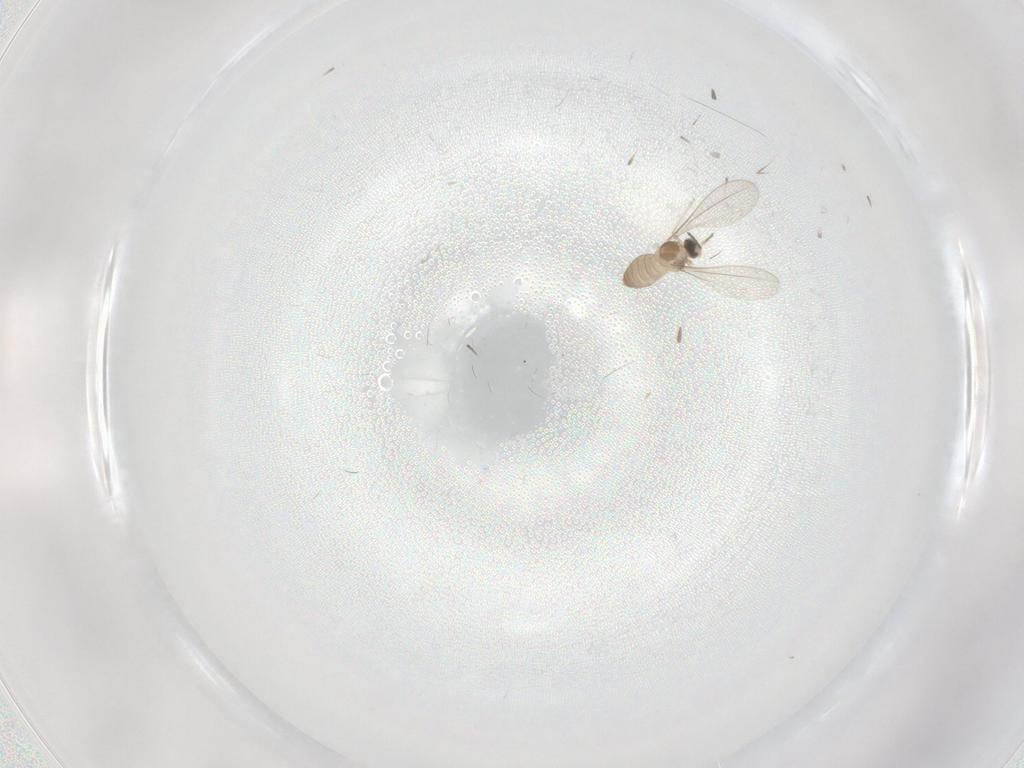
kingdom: Animalia
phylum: Arthropoda
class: Insecta
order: Diptera
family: Cecidomyiidae
